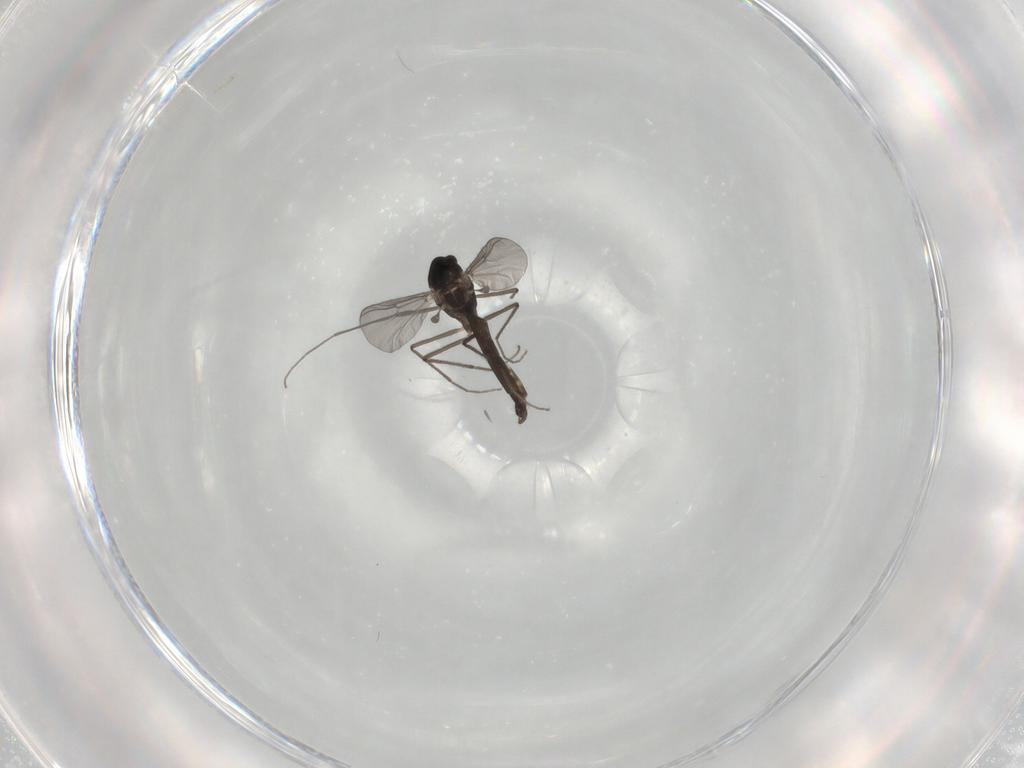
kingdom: Animalia
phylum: Arthropoda
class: Insecta
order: Diptera
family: Chironomidae
